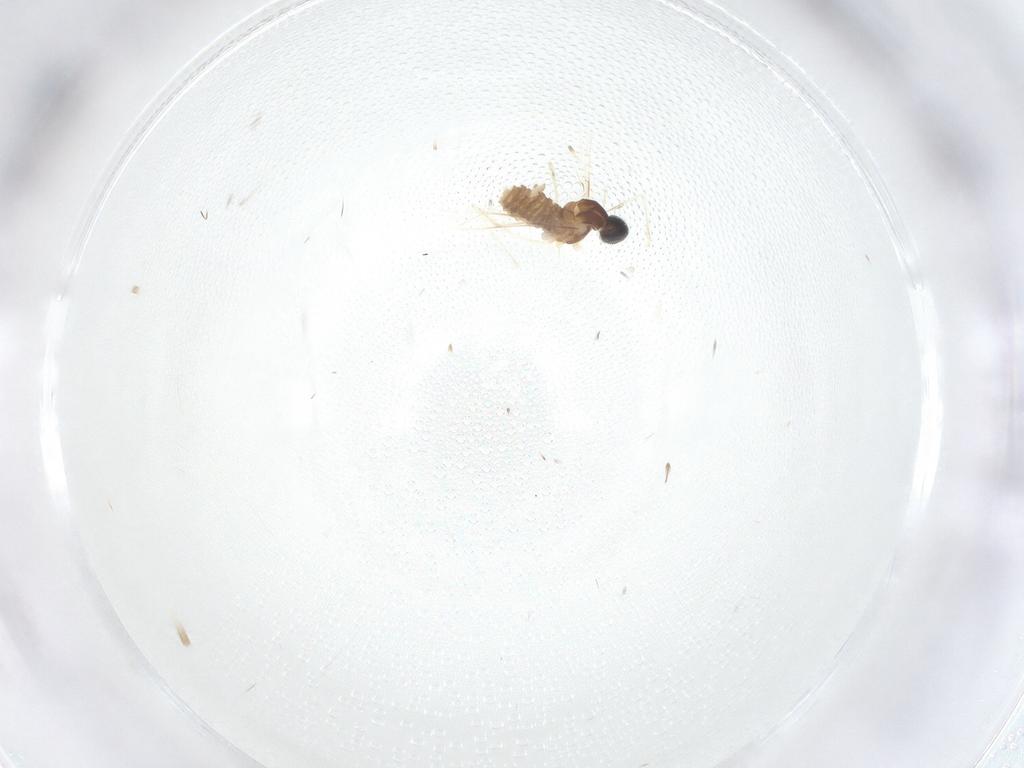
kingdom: Animalia
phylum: Arthropoda
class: Insecta
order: Diptera
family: Cecidomyiidae
